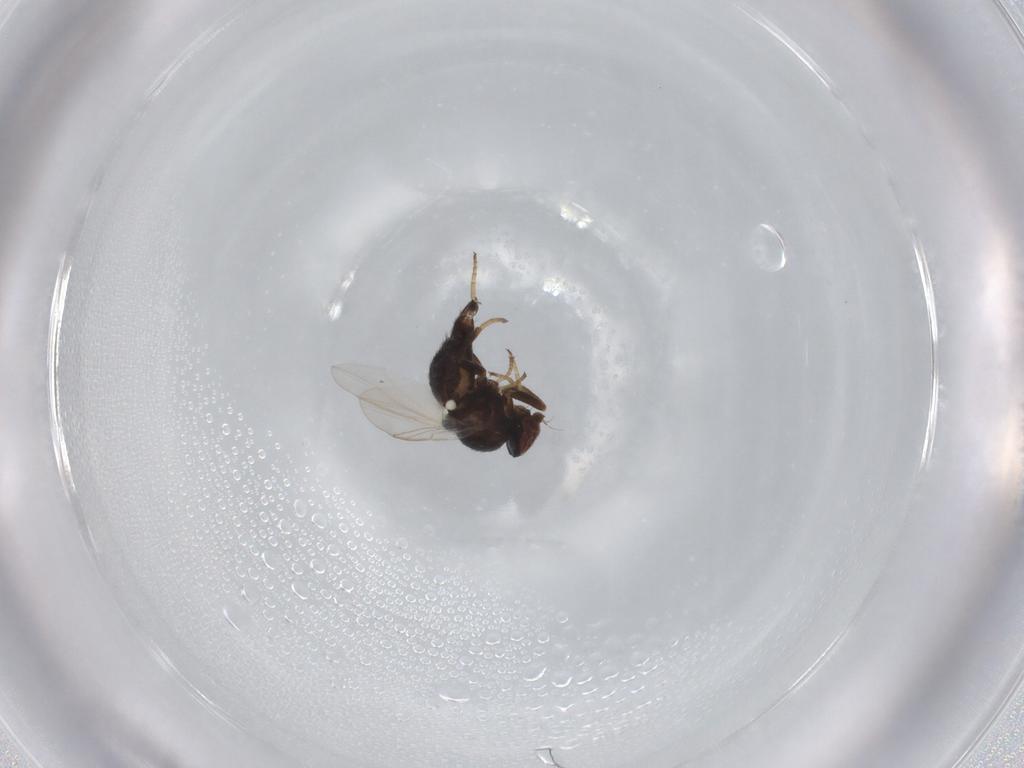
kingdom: Animalia
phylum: Arthropoda
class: Insecta
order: Diptera
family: Agromyzidae
